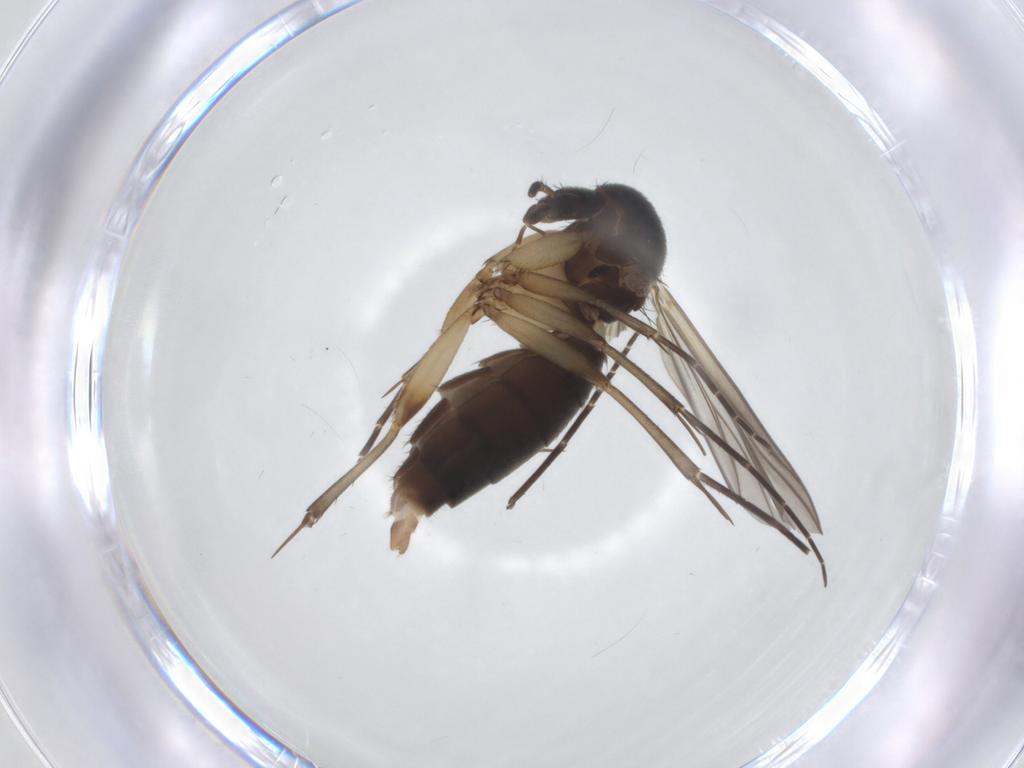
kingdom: Animalia
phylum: Arthropoda
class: Insecta
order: Diptera
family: Mycetophilidae
